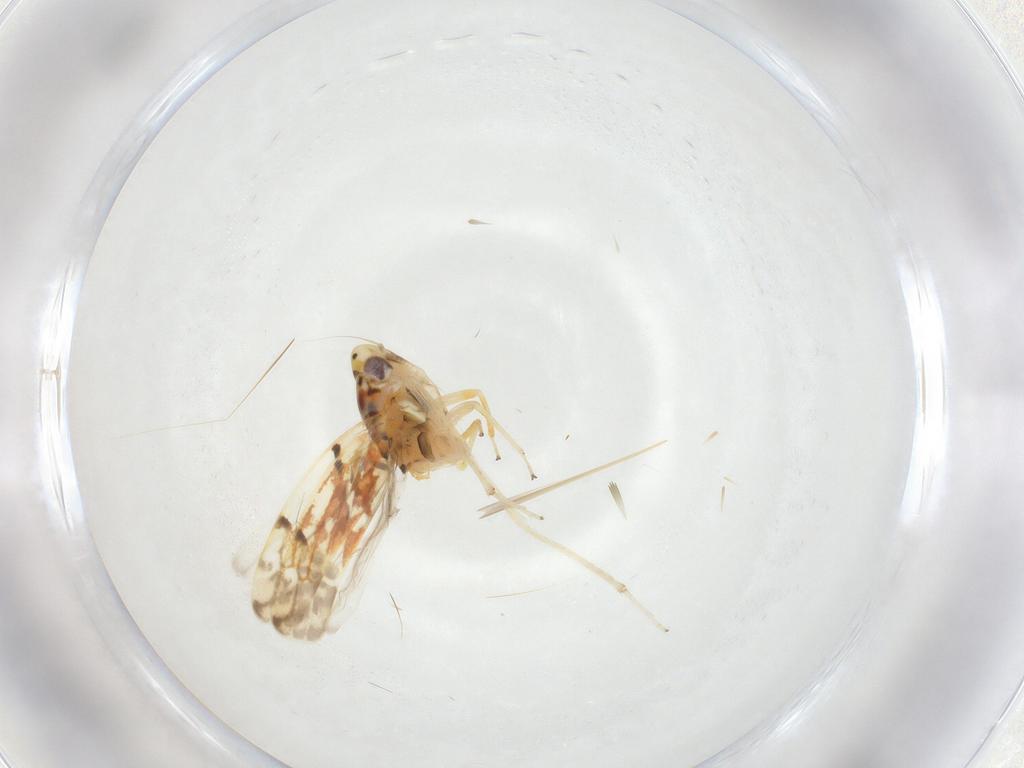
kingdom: Animalia
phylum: Arthropoda
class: Insecta
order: Hemiptera
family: Cicadellidae
